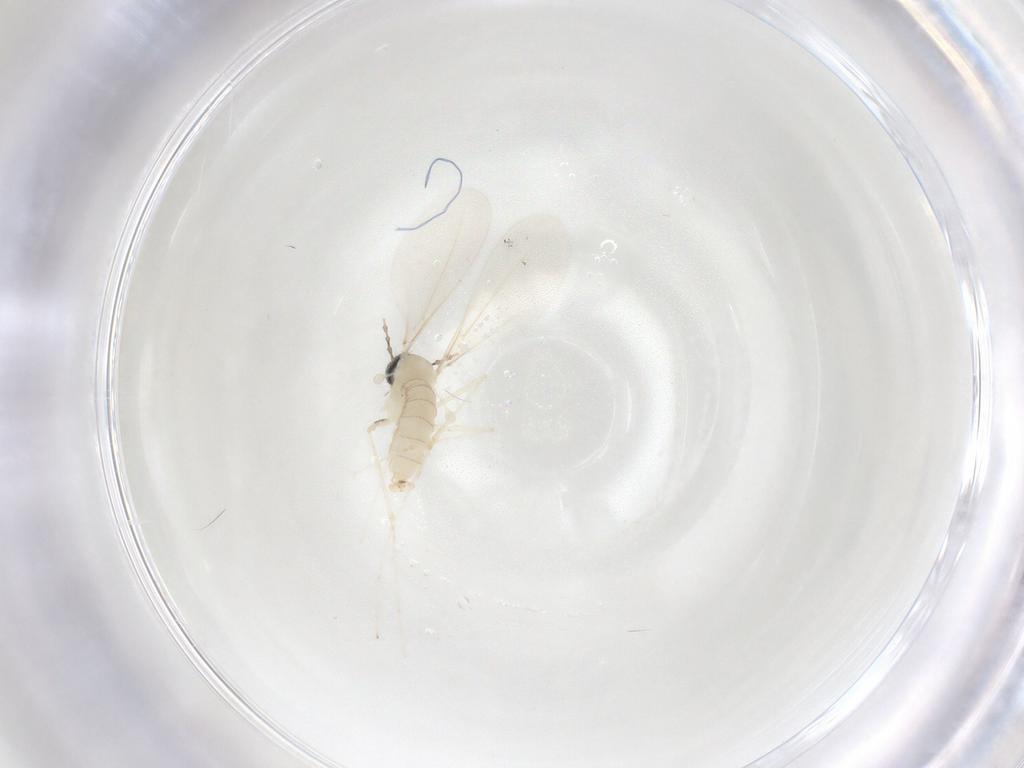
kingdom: Animalia
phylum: Arthropoda
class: Insecta
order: Diptera
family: Cecidomyiidae
